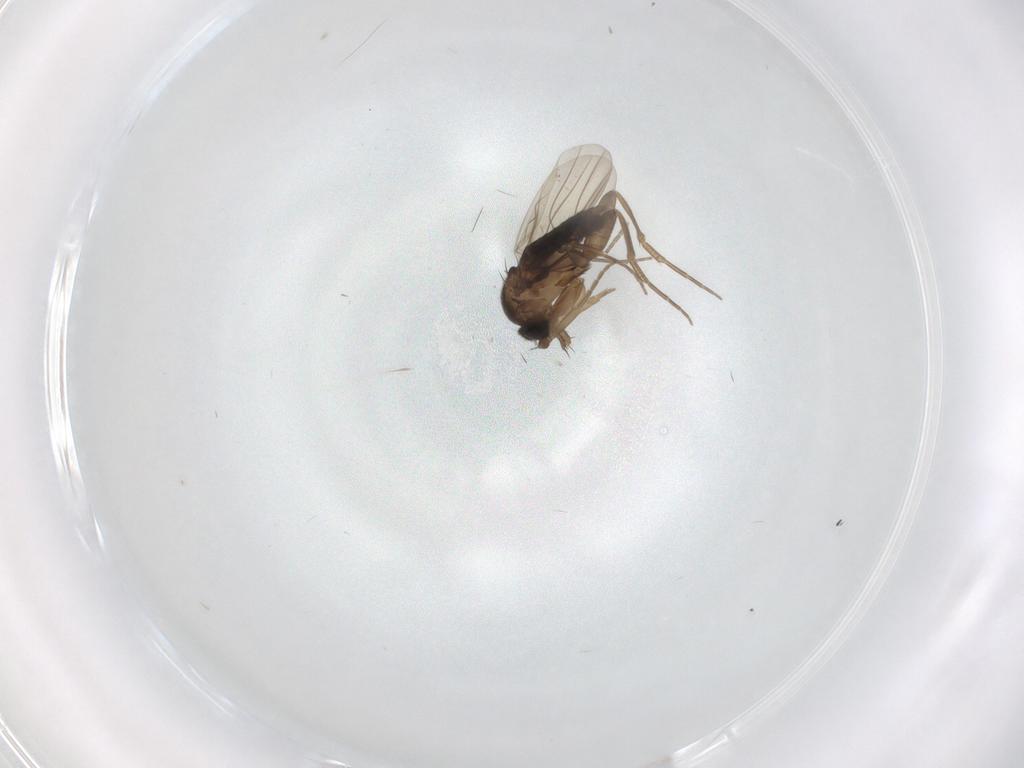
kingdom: Animalia
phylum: Arthropoda
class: Insecta
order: Diptera
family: Phoridae
